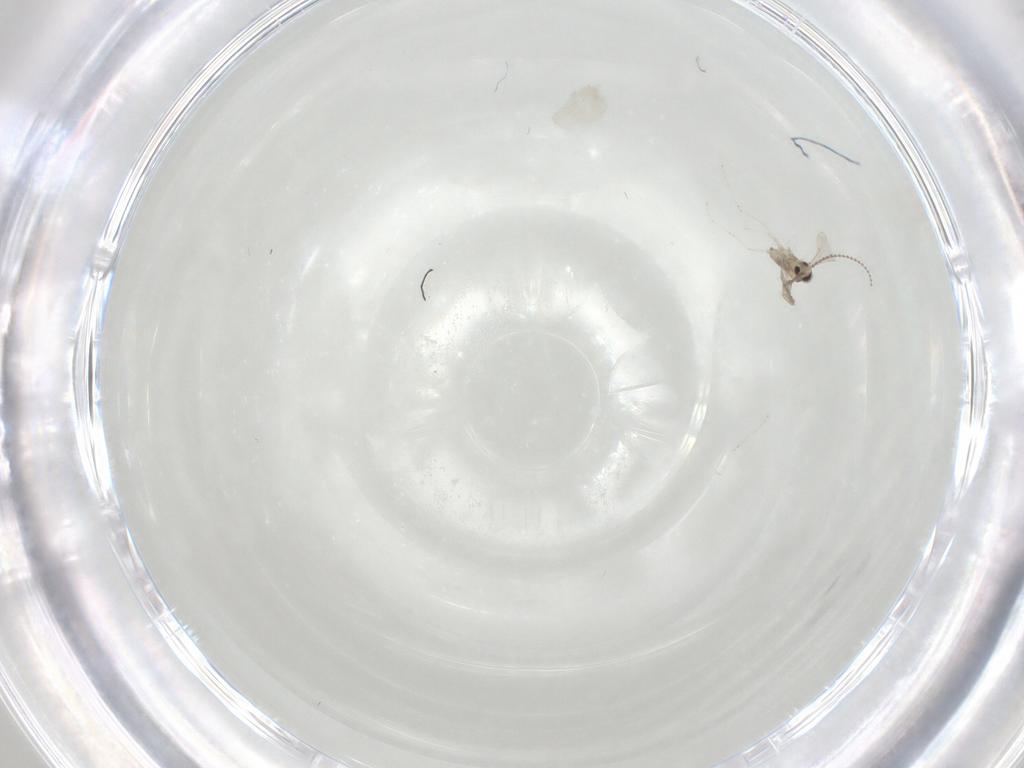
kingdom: Animalia
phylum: Arthropoda
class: Insecta
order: Diptera
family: Cecidomyiidae
